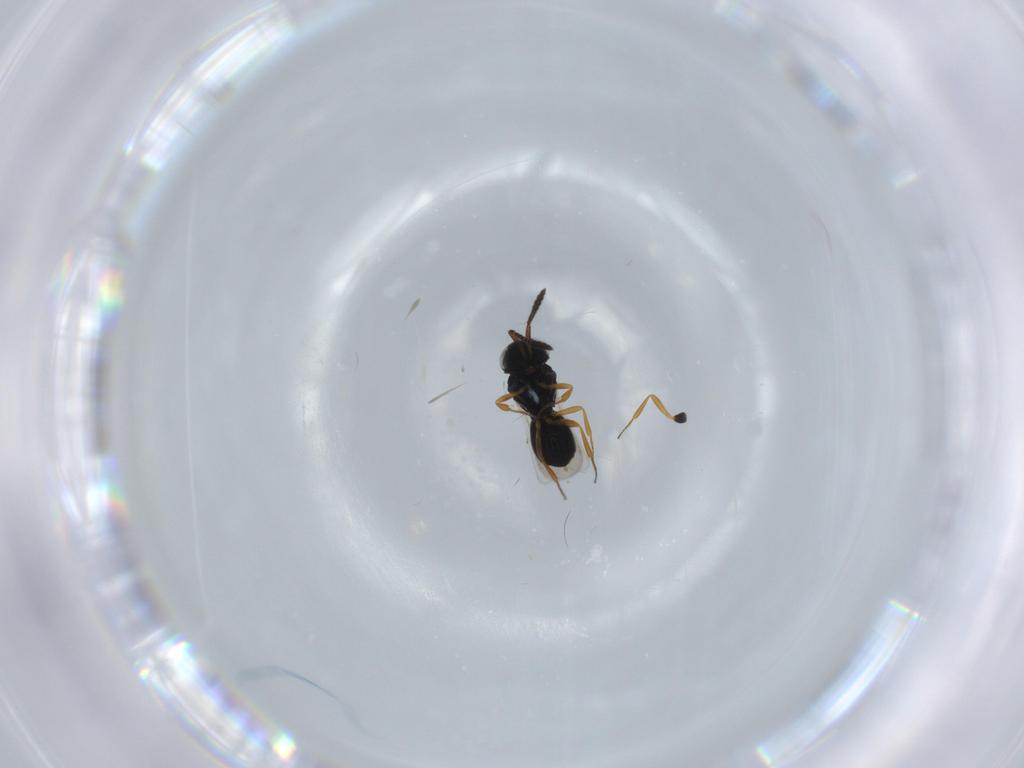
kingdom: Animalia
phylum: Arthropoda
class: Insecta
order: Hymenoptera
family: Scelionidae
